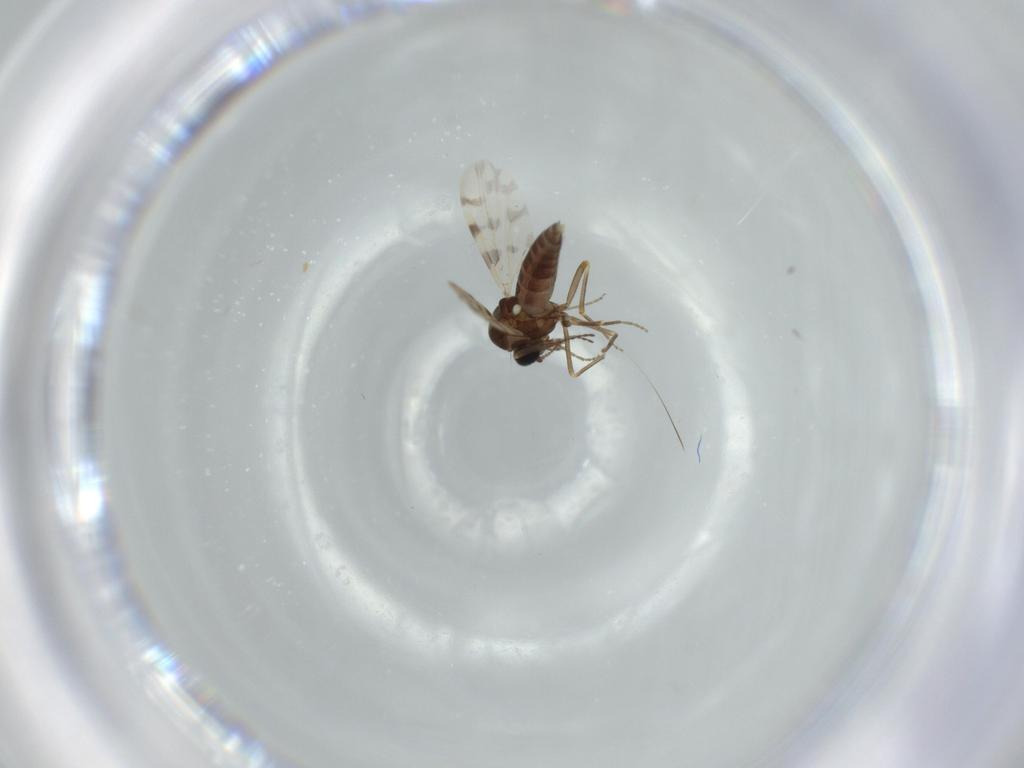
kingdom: Animalia
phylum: Arthropoda
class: Insecta
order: Diptera
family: Ceratopogonidae
